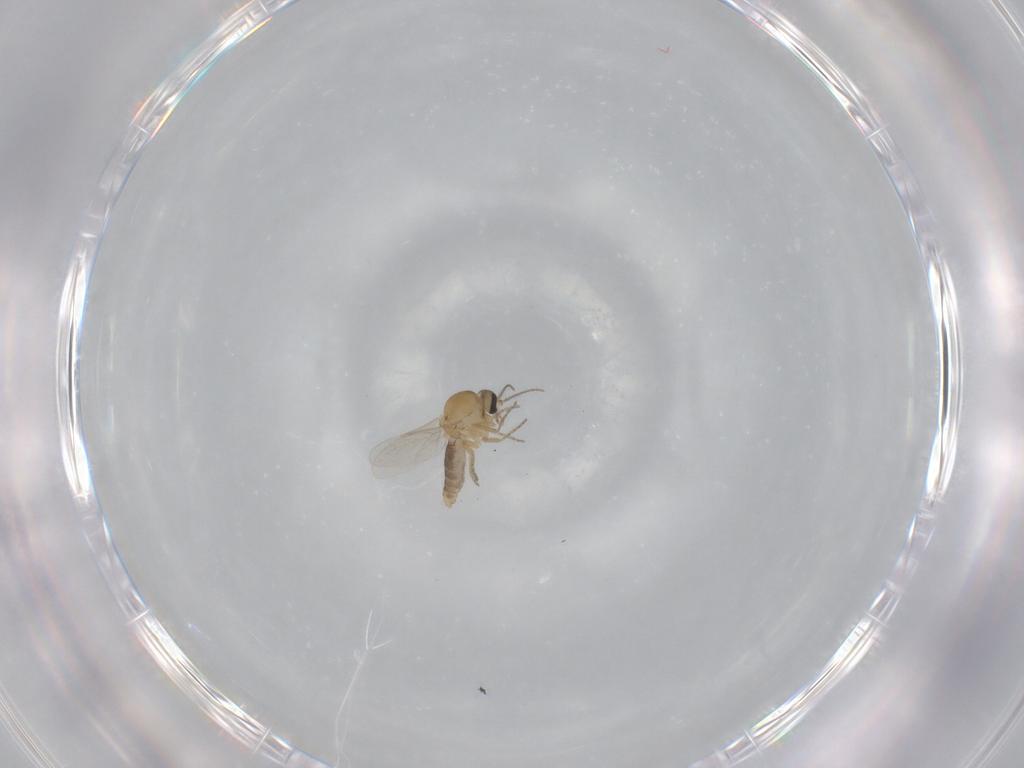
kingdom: Animalia
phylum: Arthropoda
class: Insecta
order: Diptera
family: Ceratopogonidae
